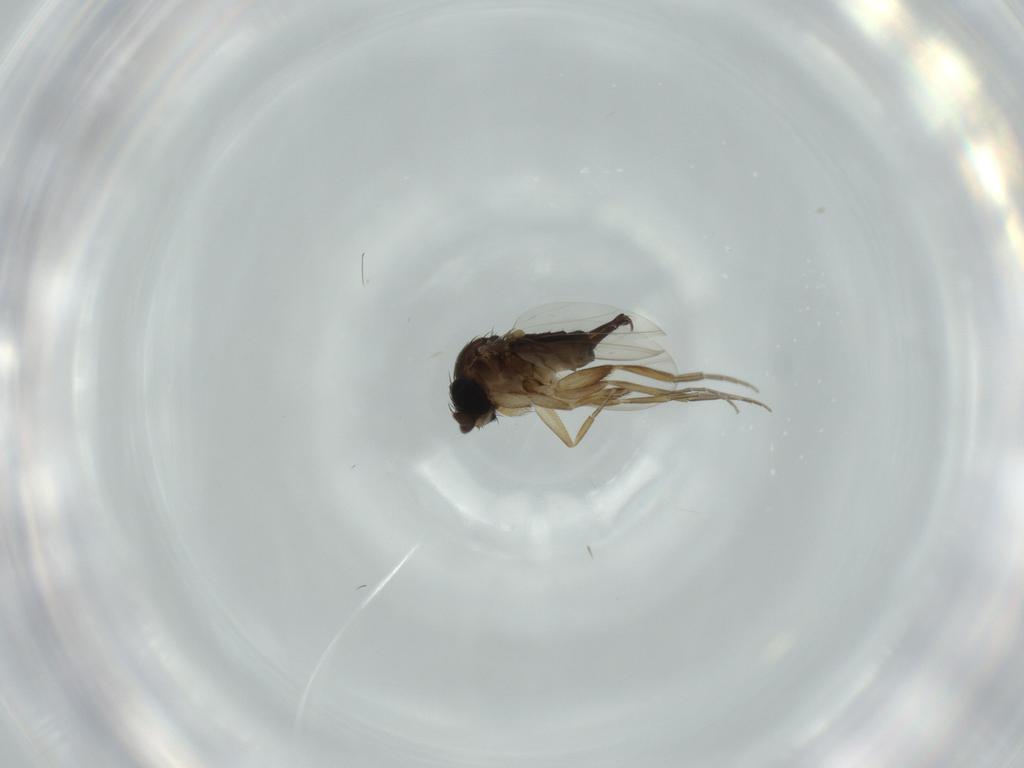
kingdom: Animalia
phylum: Arthropoda
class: Insecta
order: Diptera
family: Phoridae
